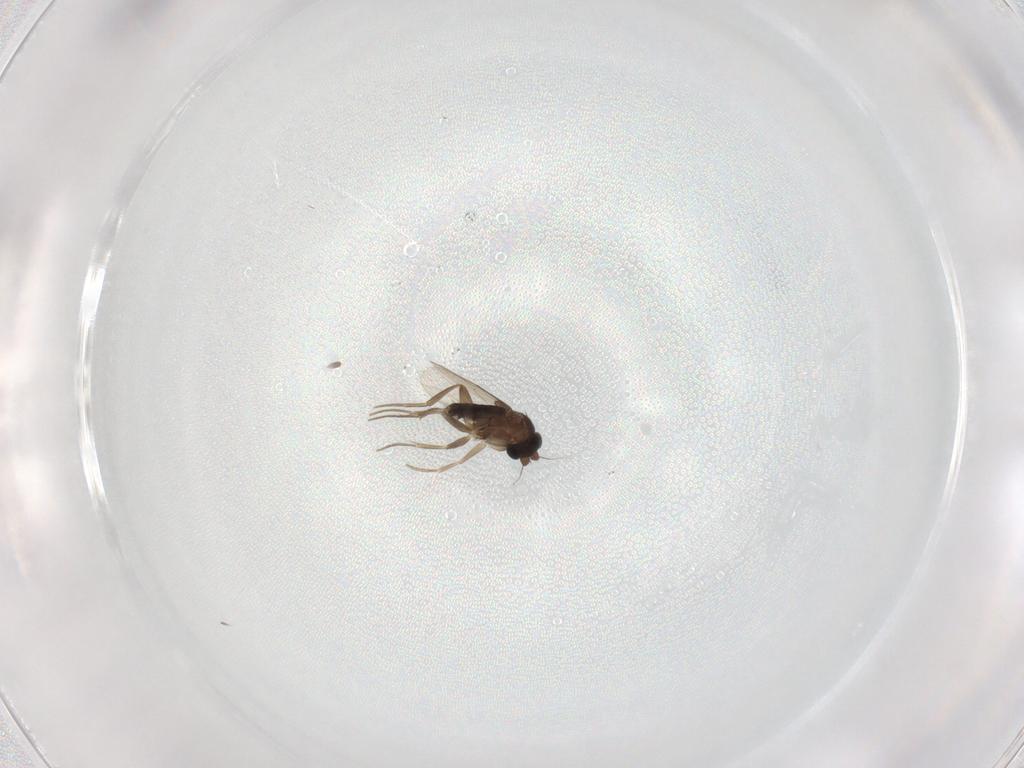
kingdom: Animalia
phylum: Arthropoda
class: Insecta
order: Diptera
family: Phoridae
